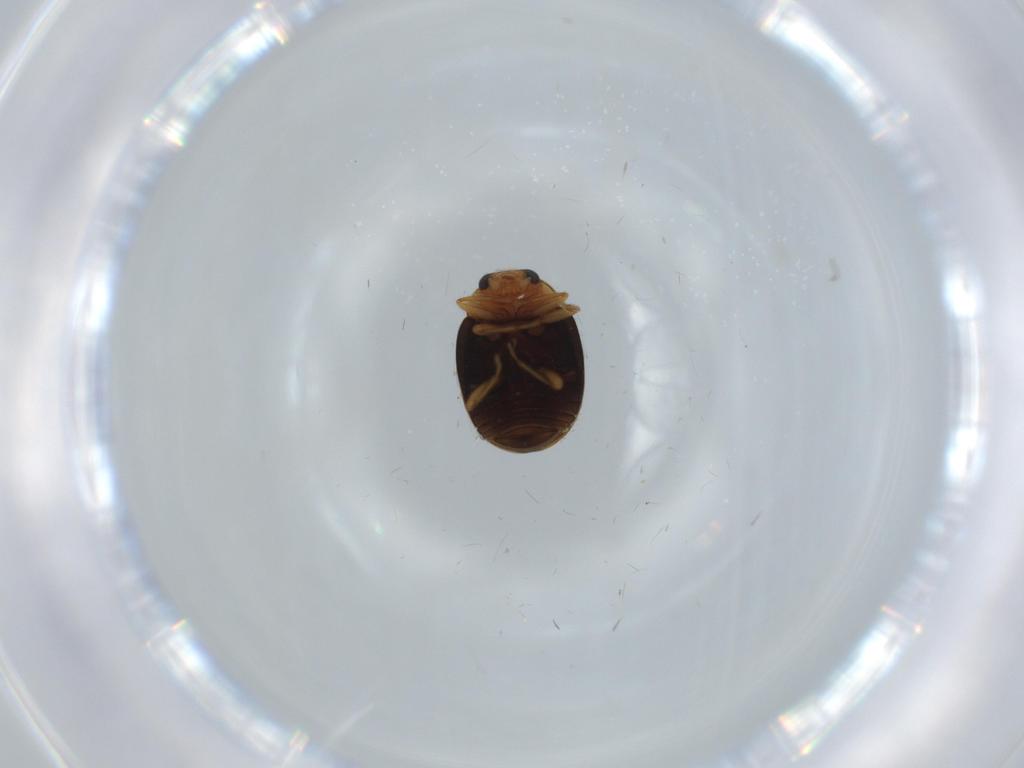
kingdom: Animalia
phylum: Arthropoda
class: Insecta
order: Coleoptera
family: Coccinellidae
